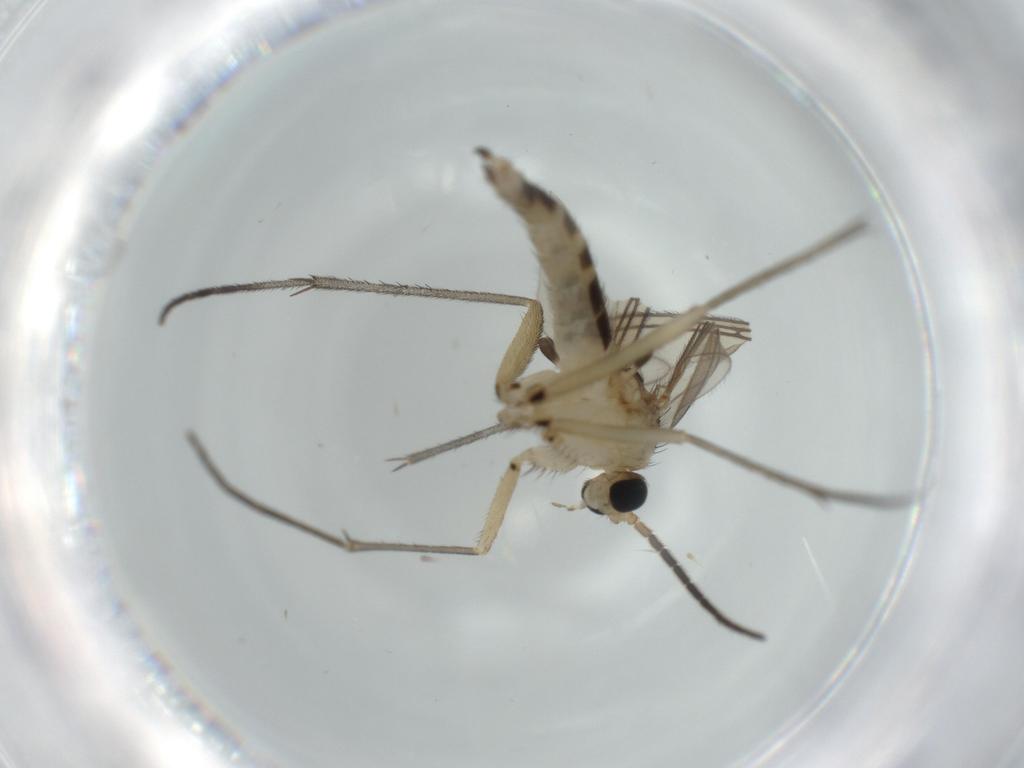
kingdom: Animalia
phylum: Arthropoda
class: Insecta
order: Diptera
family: Sciaridae
